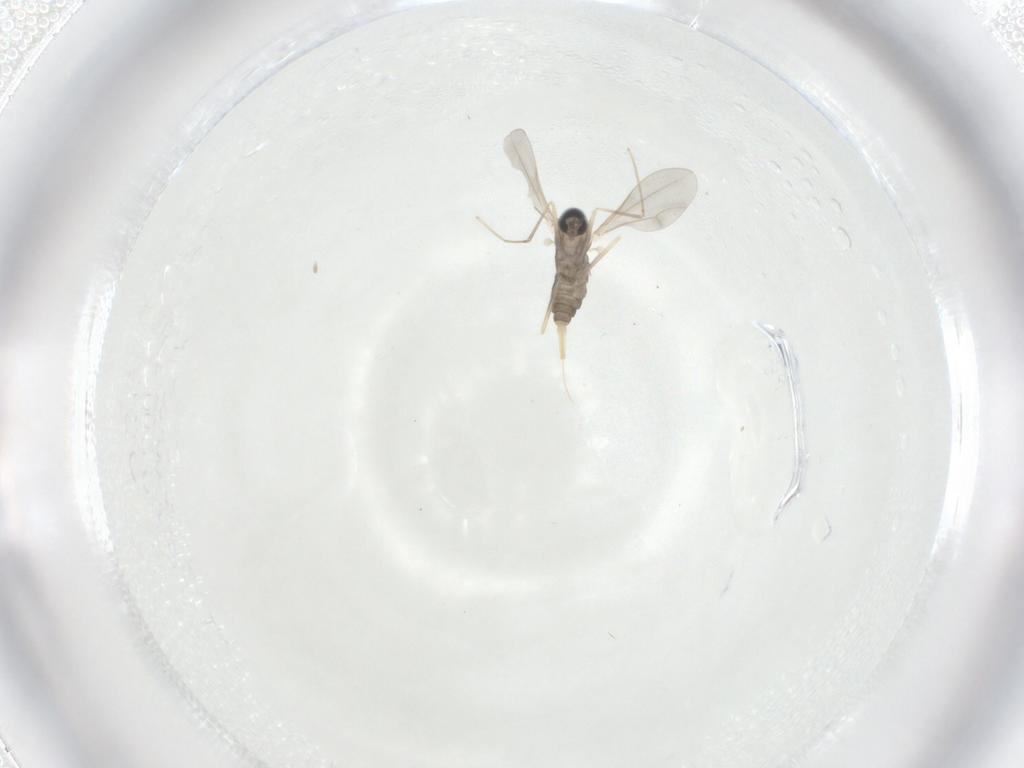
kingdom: Animalia
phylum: Arthropoda
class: Insecta
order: Diptera
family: Cecidomyiidae
